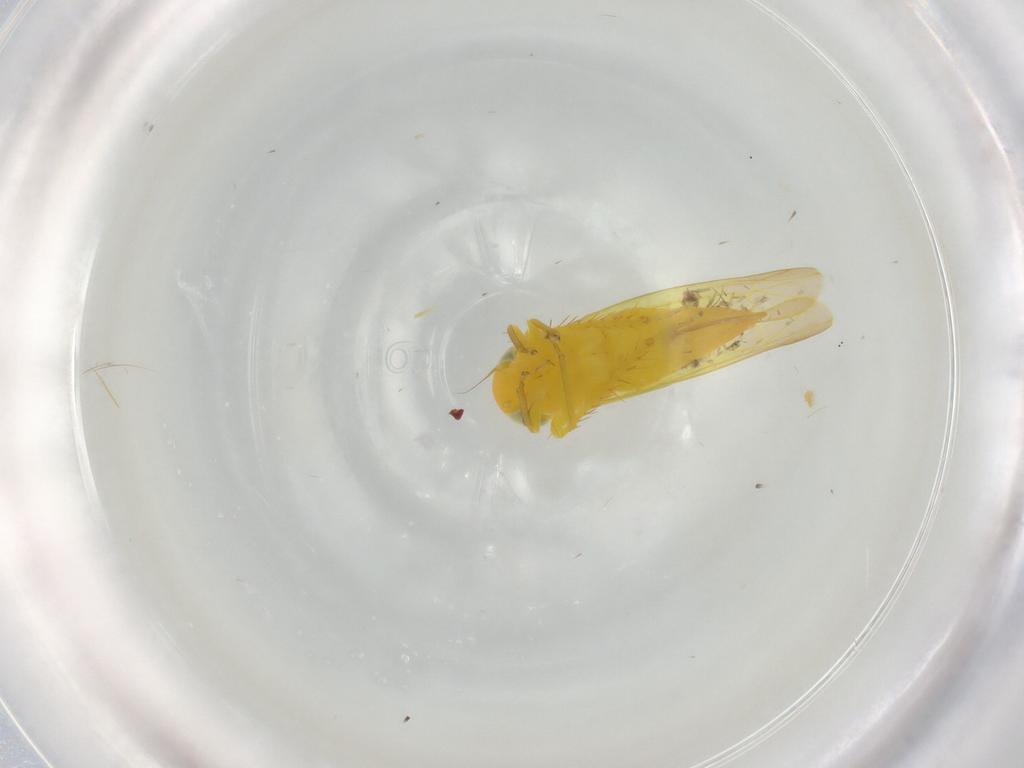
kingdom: Animalia
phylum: Arthropoda
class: Insecta
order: Hemiptera
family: Cicadellidae
